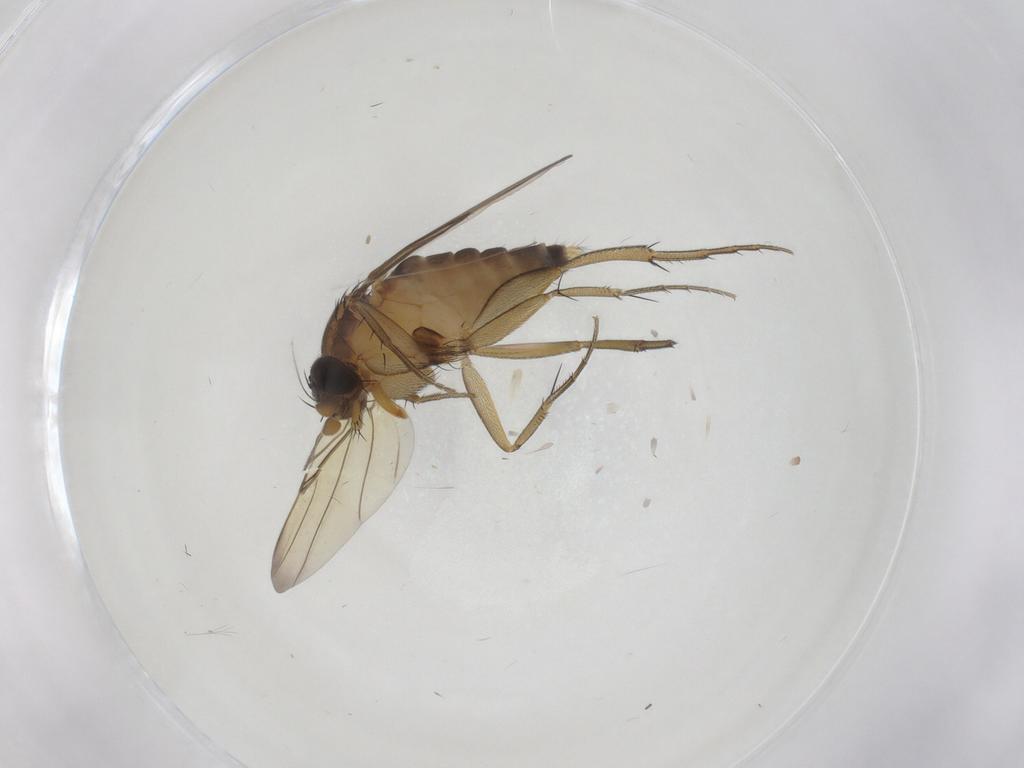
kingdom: Animalia
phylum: Arthropoda
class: Insecta
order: Diptera
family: Phoridae
